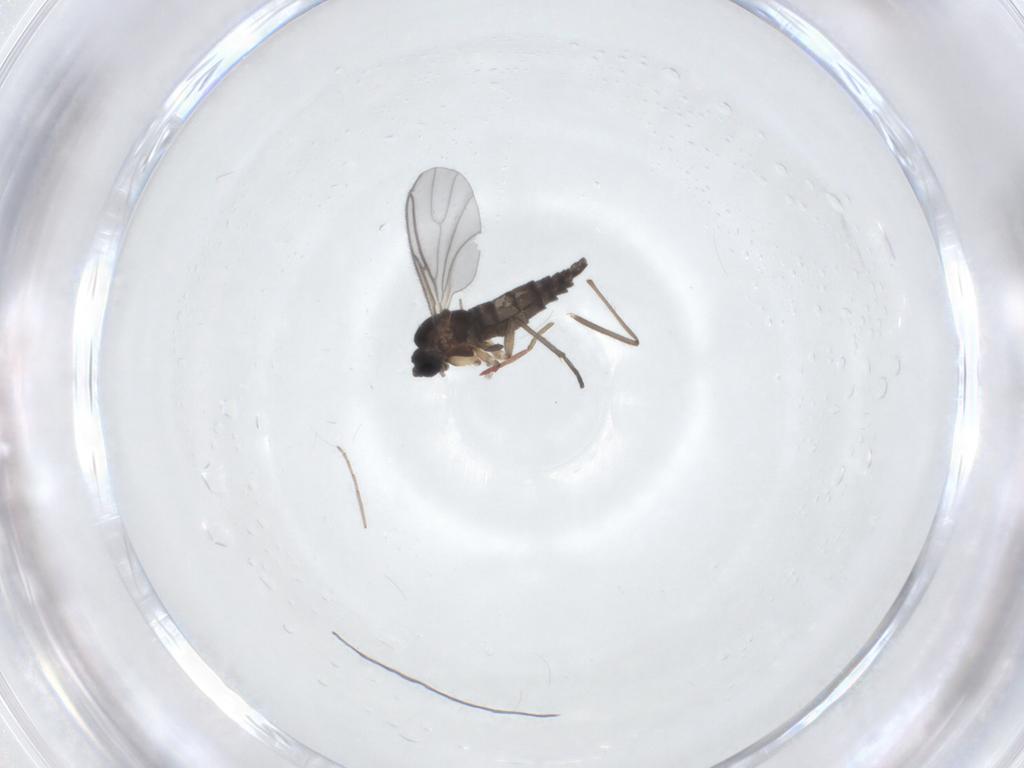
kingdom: Animalia
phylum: Arthropoda
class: Insecta
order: Diptera
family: Sciaridae
